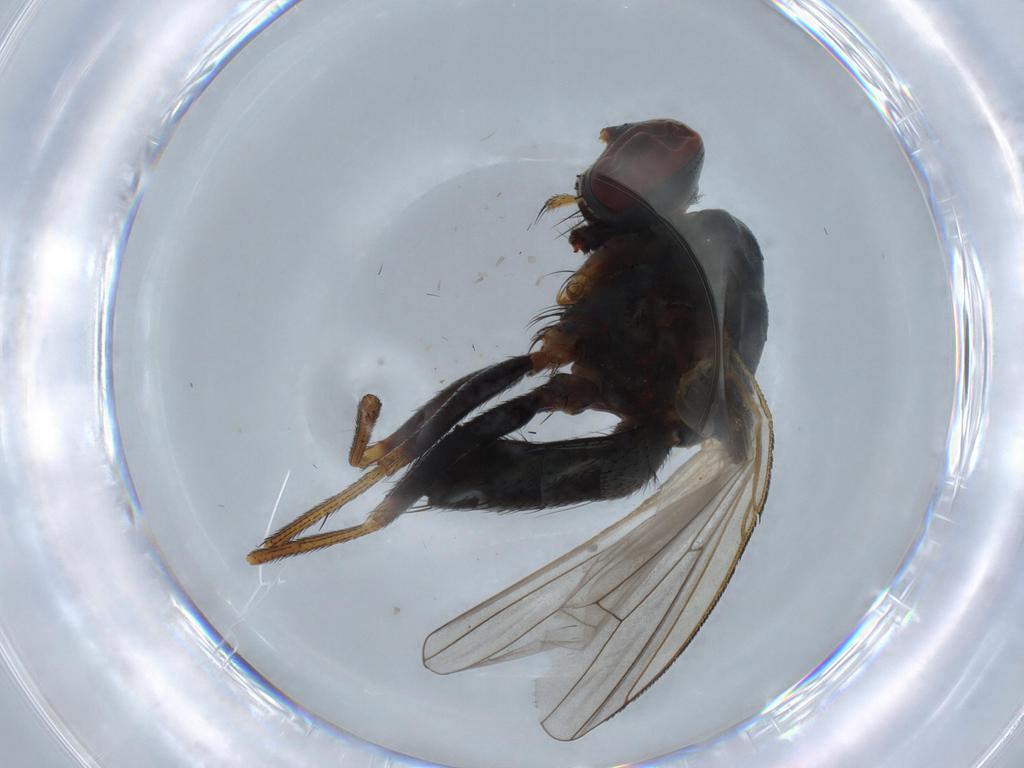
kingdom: Animalia
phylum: Arthropoda
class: Insecta
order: Diptera
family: Cecidomyiidae
